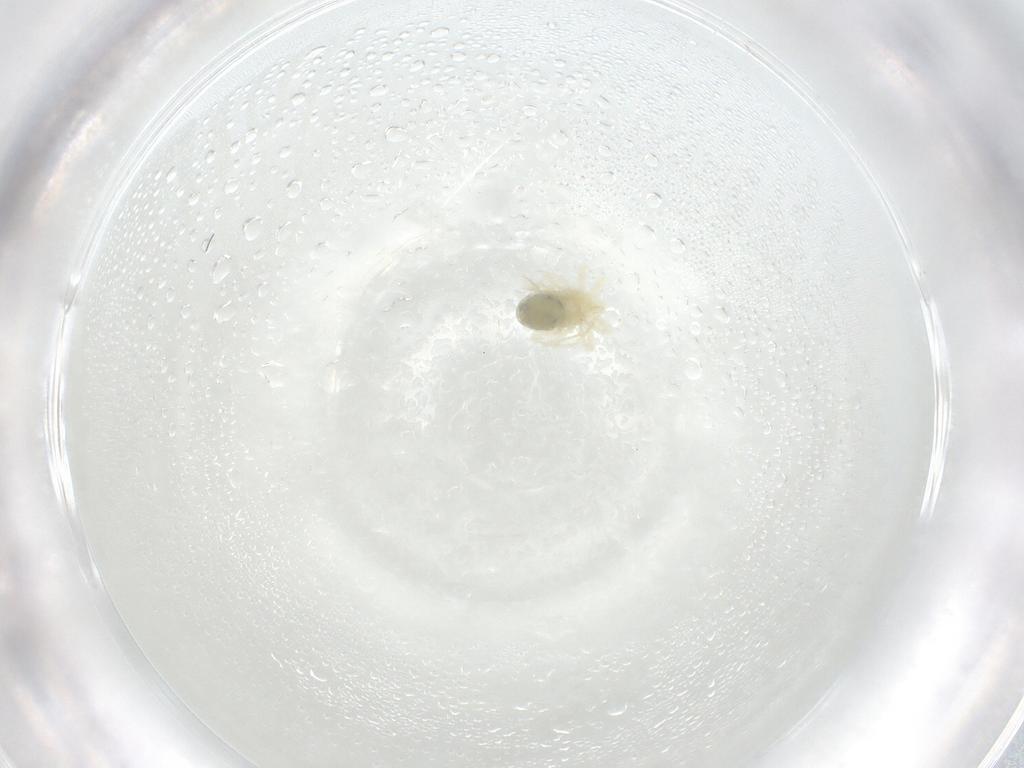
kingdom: Animalia
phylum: Arthropoda
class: Arachnida
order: Trombidiformes
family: Anystidae
